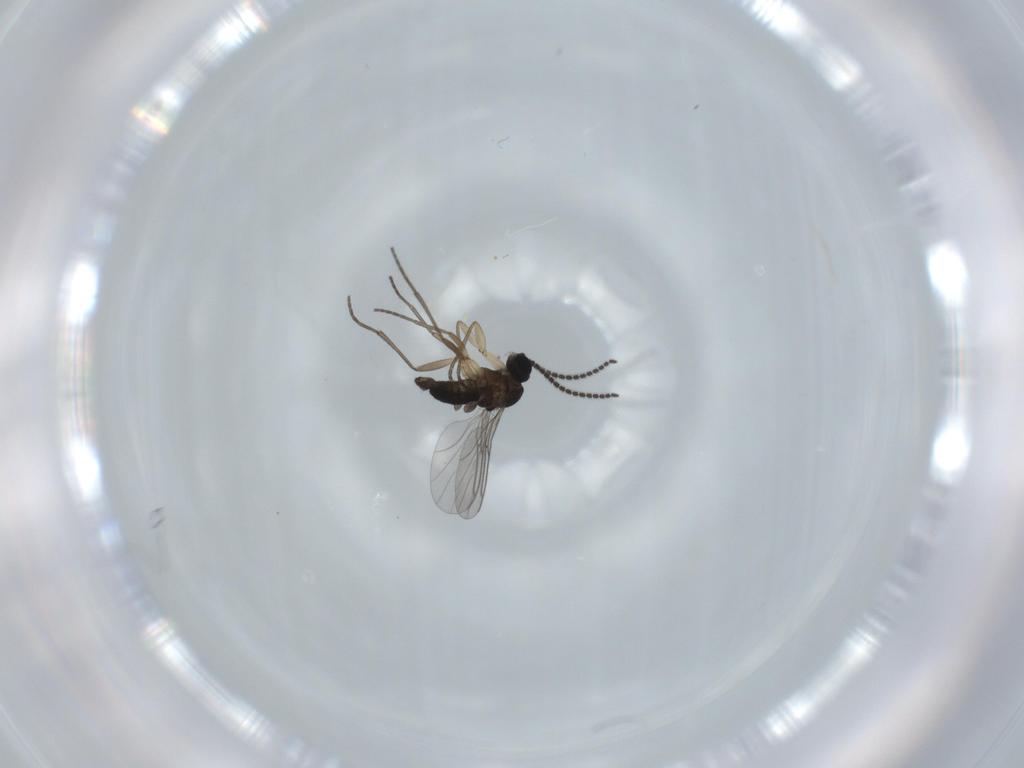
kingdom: Animalia
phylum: Arthropoda
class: Insecta
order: Diptera
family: Sciaridae
